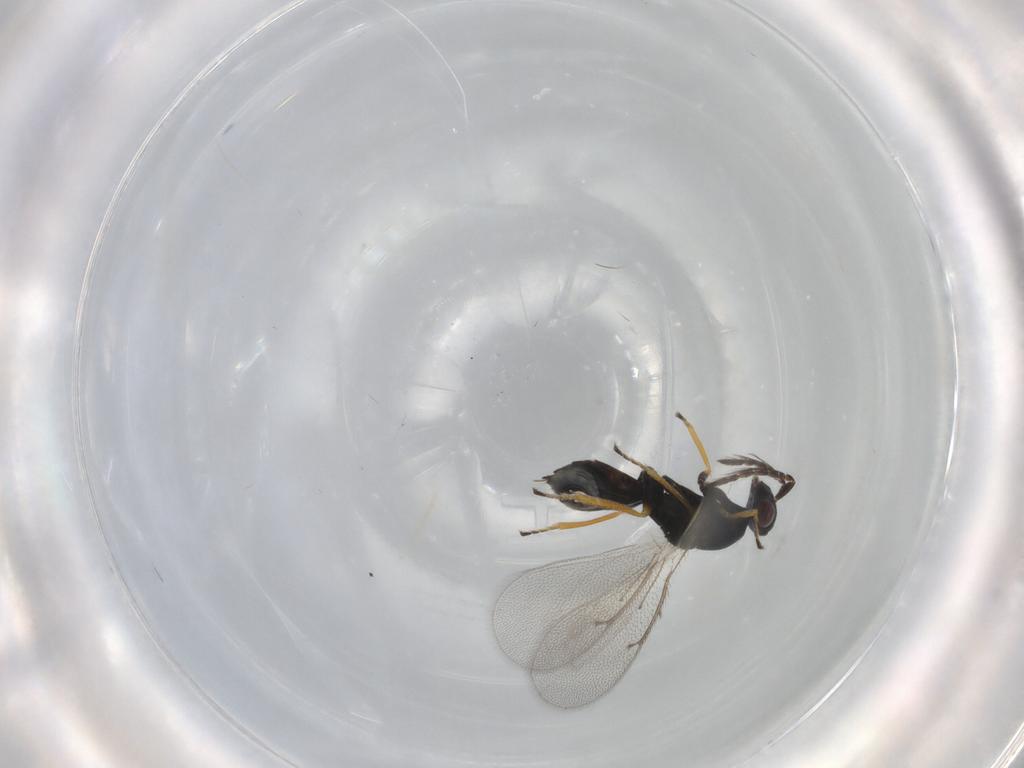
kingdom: Animalia
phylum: Arthropoda
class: Insecta
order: Hymenoptera
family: Eulophidae
